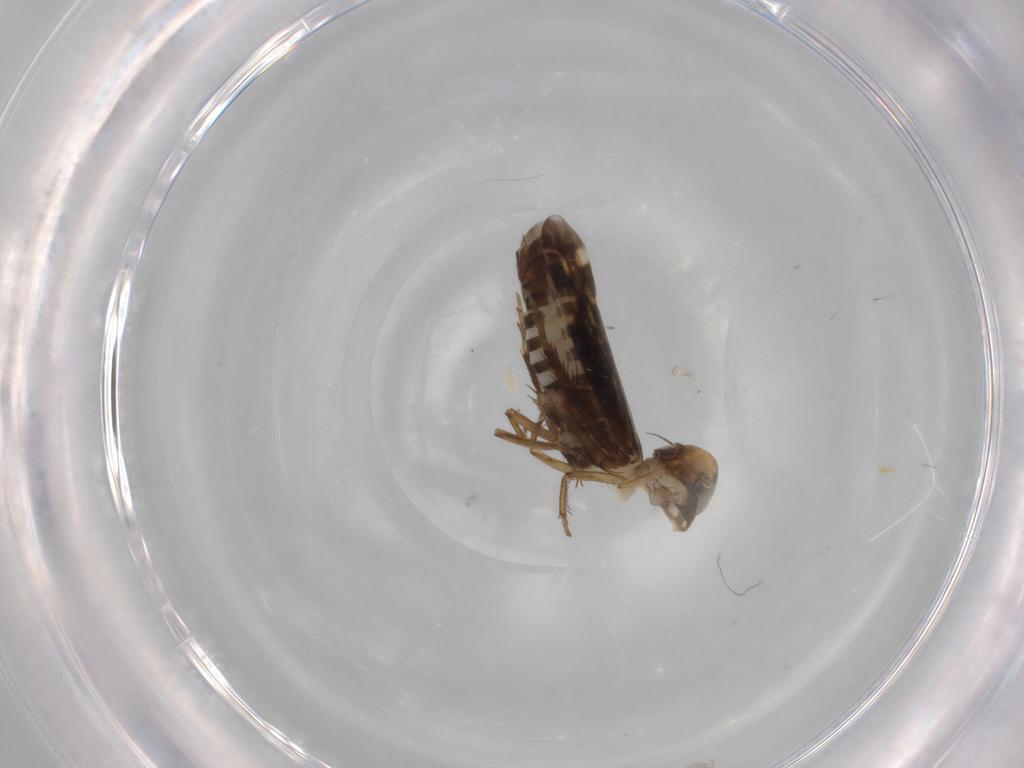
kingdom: Animalia
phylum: Arthropoda
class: Insecta
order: Hemiptera
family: Cicadellidae
